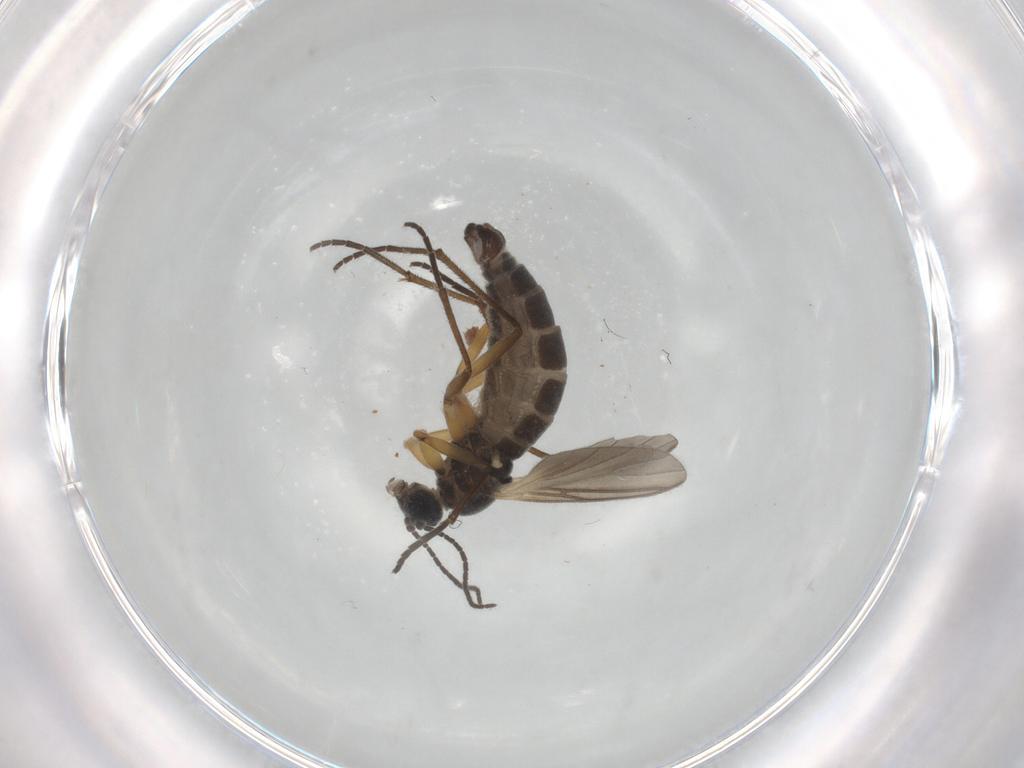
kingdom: Animalia
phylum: Arthropoda
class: Insecta
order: Diptera
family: Sciaridae
